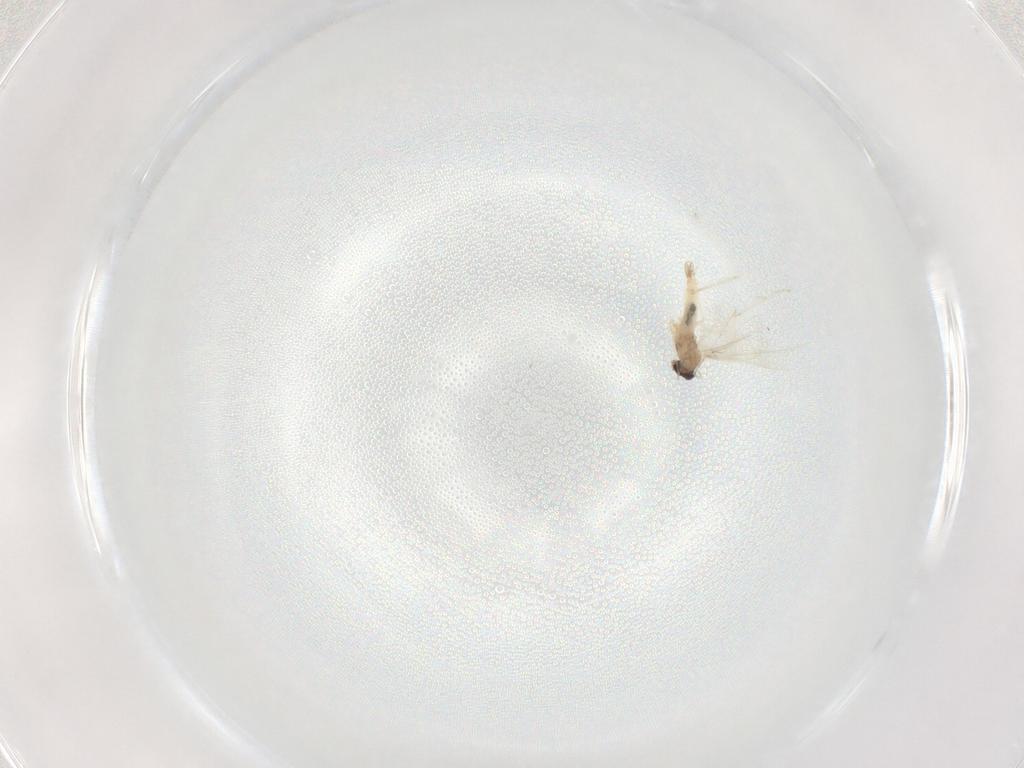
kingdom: Animalia
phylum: Arthropoda
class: Insecta
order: Diptera
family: Cecidomyiidae
